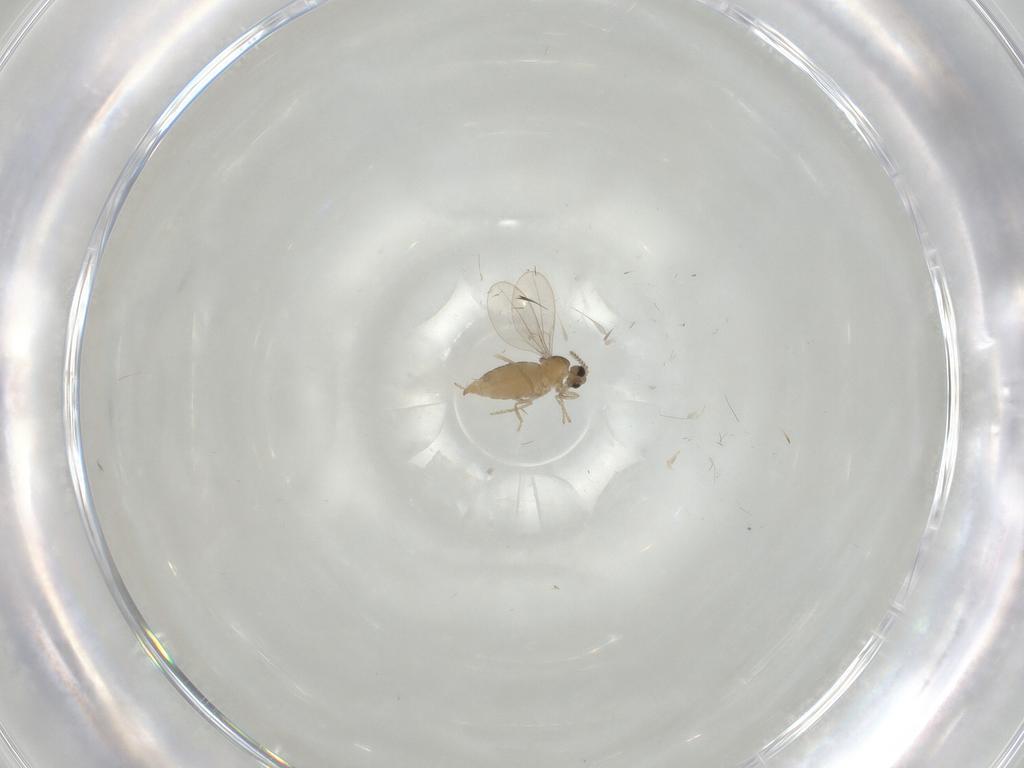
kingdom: Animalia
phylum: Arthropoda
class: Insecta
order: Diptera
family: Cecidomyiidae
